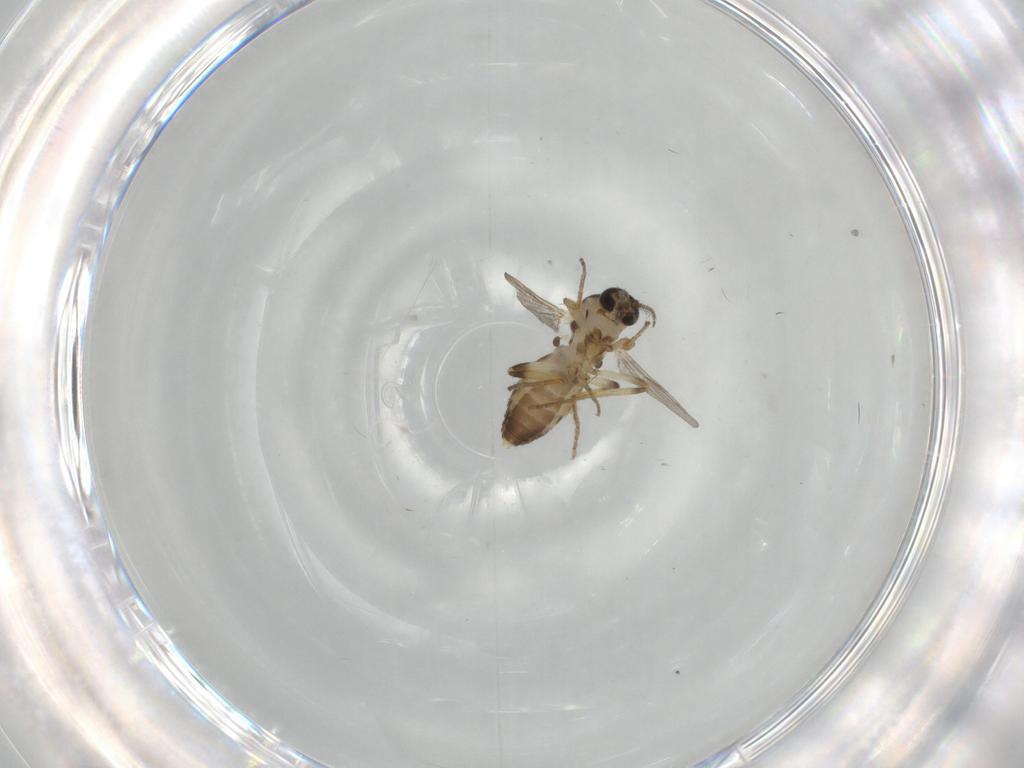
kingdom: Animalia
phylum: Arthropoda
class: Insecta
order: Diptera
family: Ceratopogonidae
